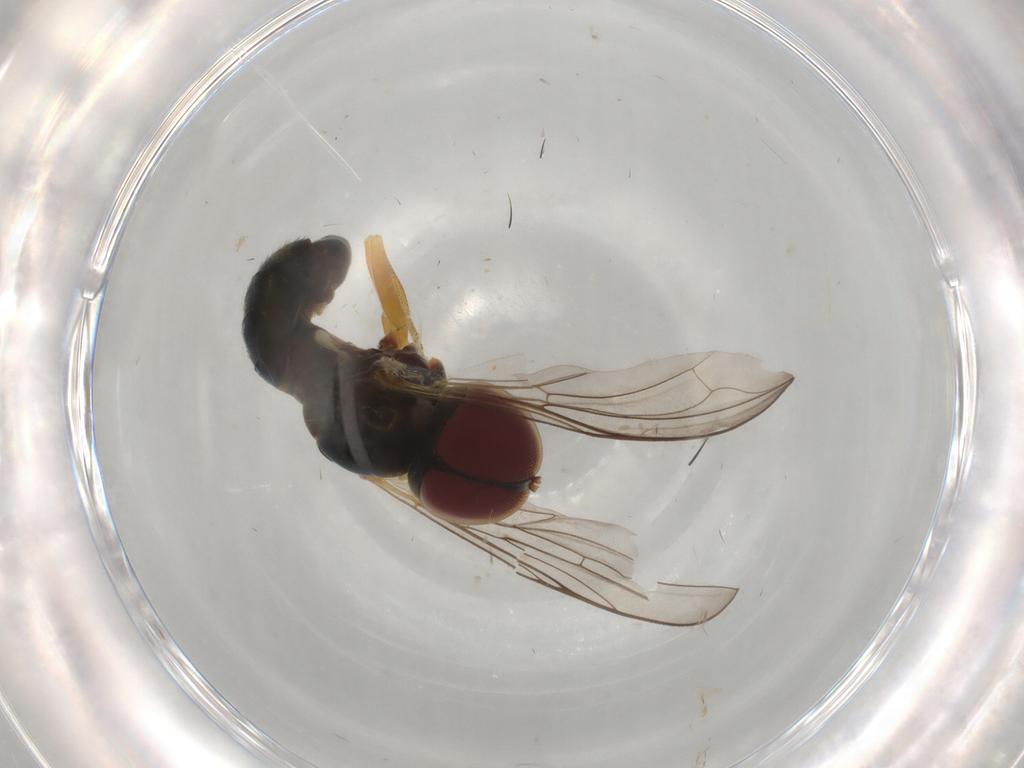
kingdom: Animalia
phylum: Arthropoda
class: Insecta
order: Diptera
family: Pipunculidae
